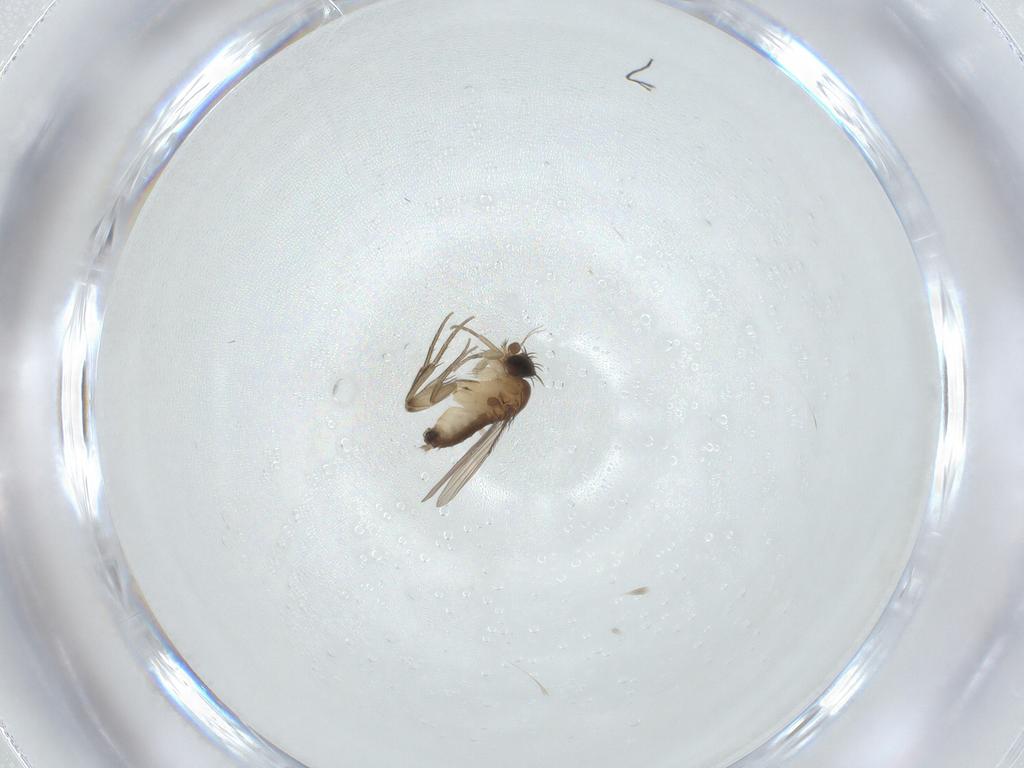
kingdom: Animalia
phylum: Arthropoda
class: Insecta
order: Diptera
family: Phoridae
